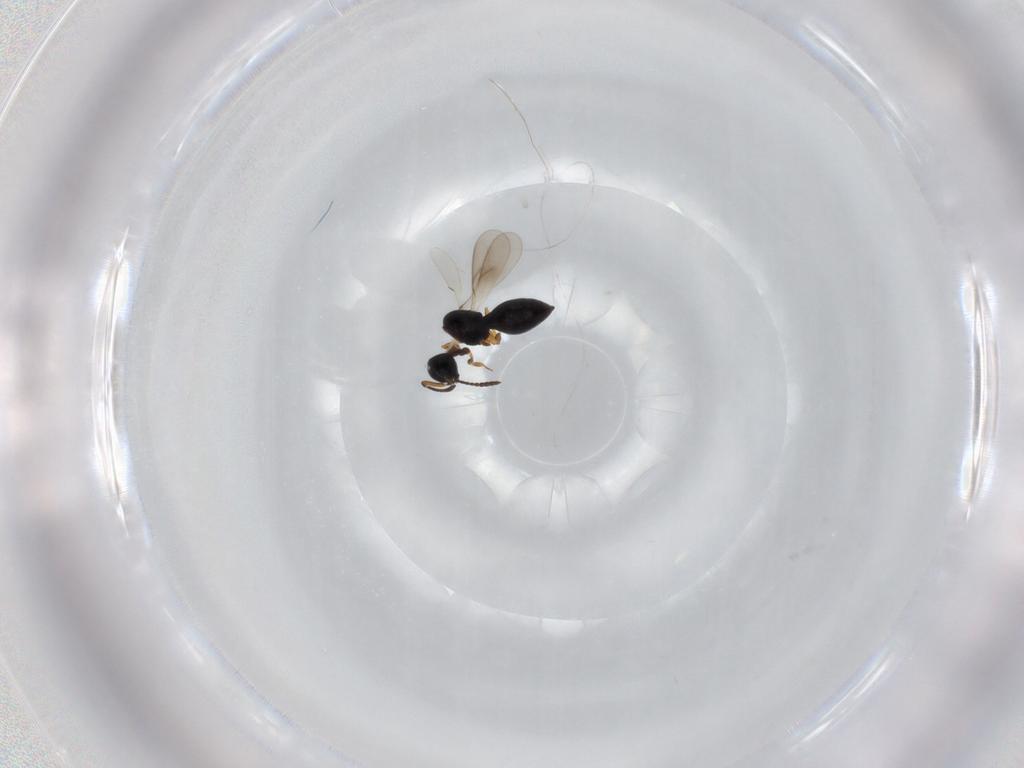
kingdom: Animalia
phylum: Arthropoda
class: Insecta
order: Hymenoptera
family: Scelionidae
